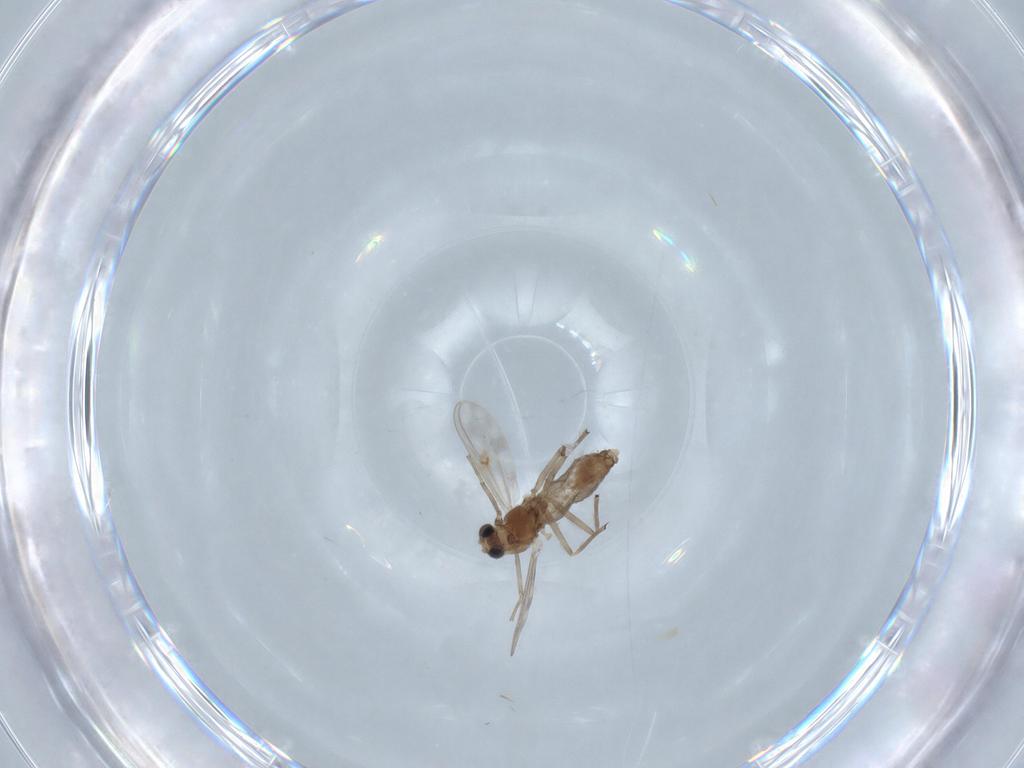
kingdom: Animalia
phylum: Arthropoda
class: Insecta
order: Diptera
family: Chironomidae
